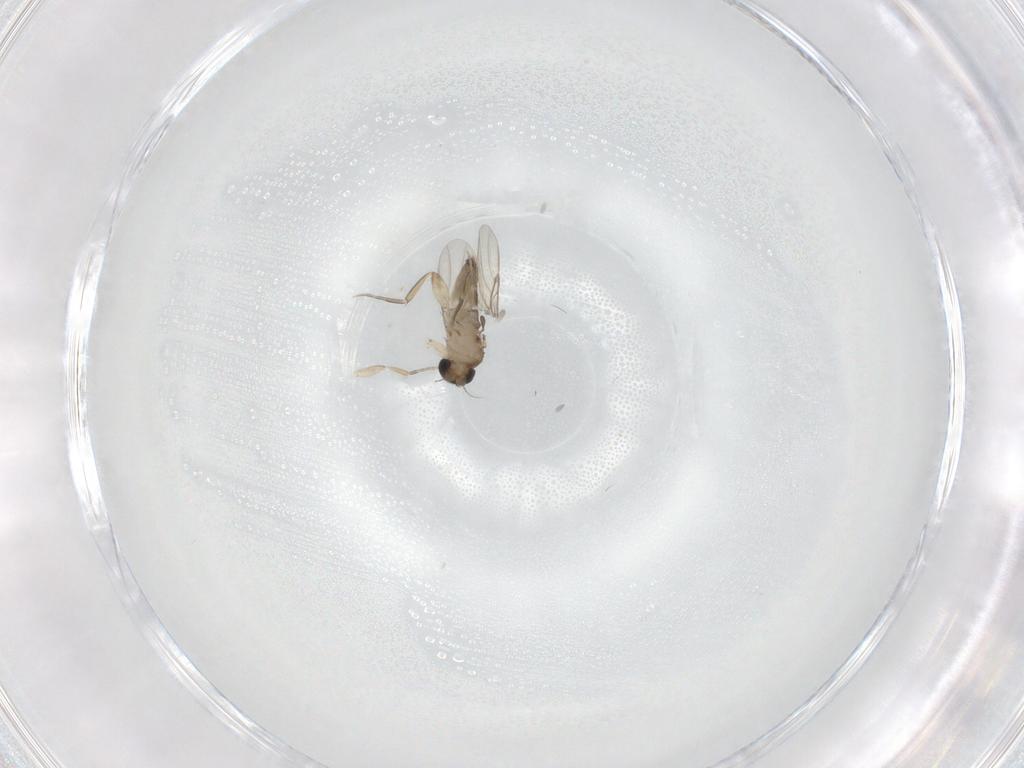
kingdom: Animalia
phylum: Arthropoda
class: Insecta
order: Diptera
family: Phoridae
